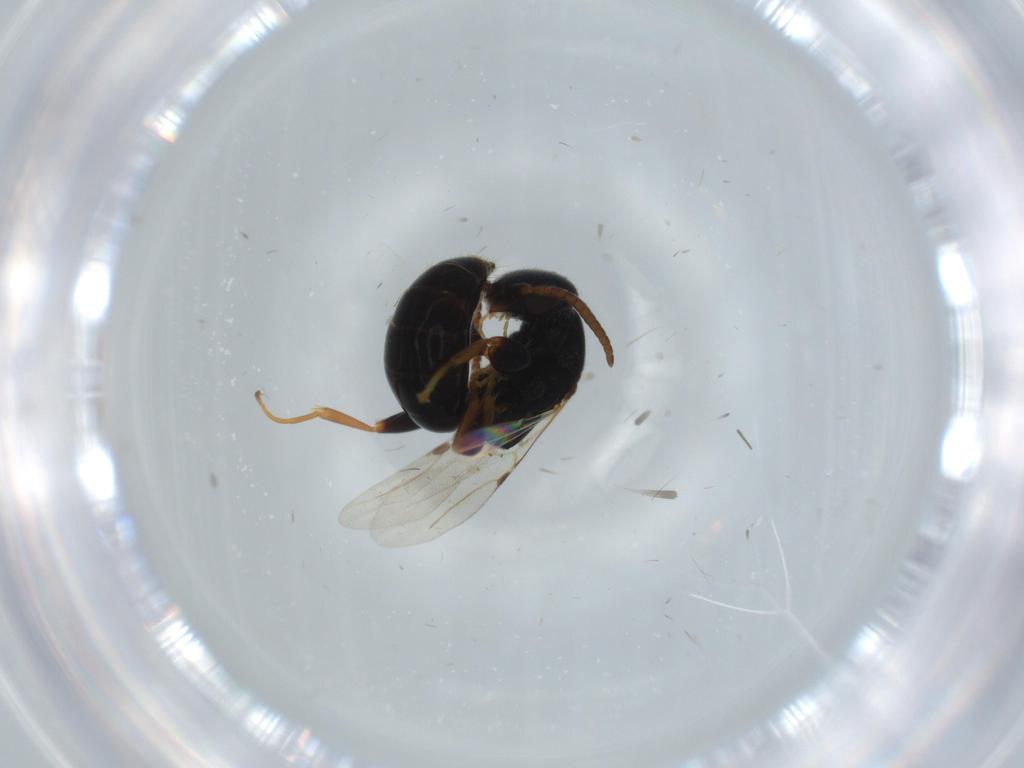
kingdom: Animalia
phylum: Arthropoda
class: Insecta
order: Hymenoptera
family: Bethylidae
